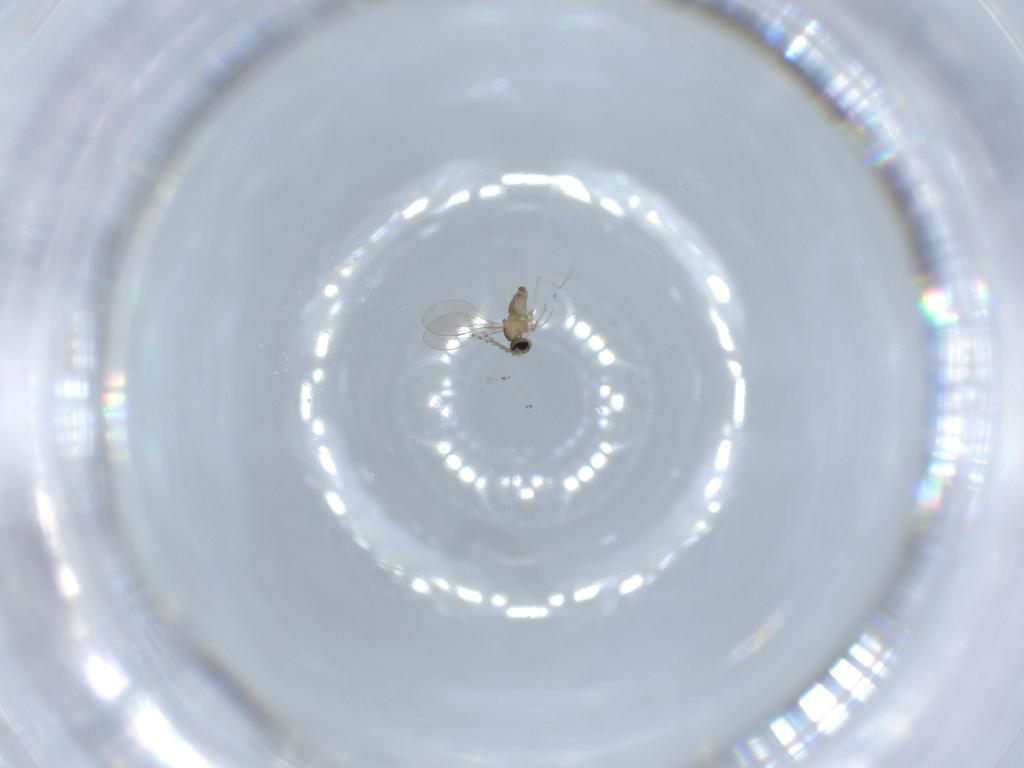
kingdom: Animalia
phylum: Arthropoda
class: Insecta
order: Diptera
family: Cecidomyiidae
